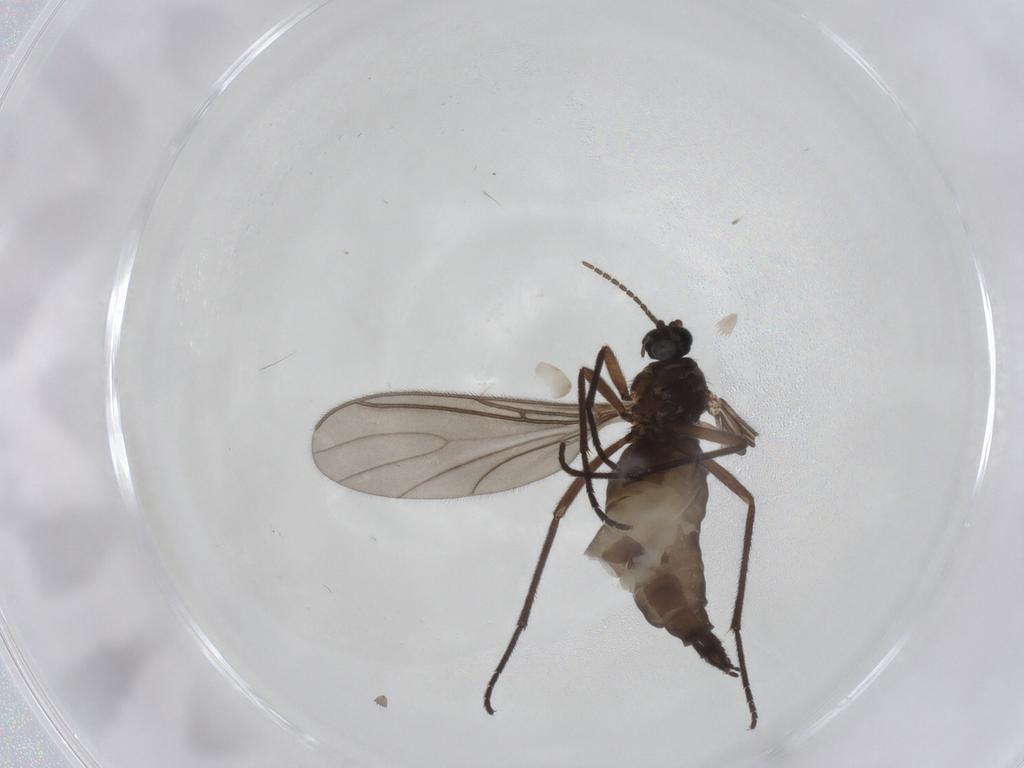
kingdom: Animalia
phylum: Arthropoda
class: Insecta
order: Diptera
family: Sciaridae
